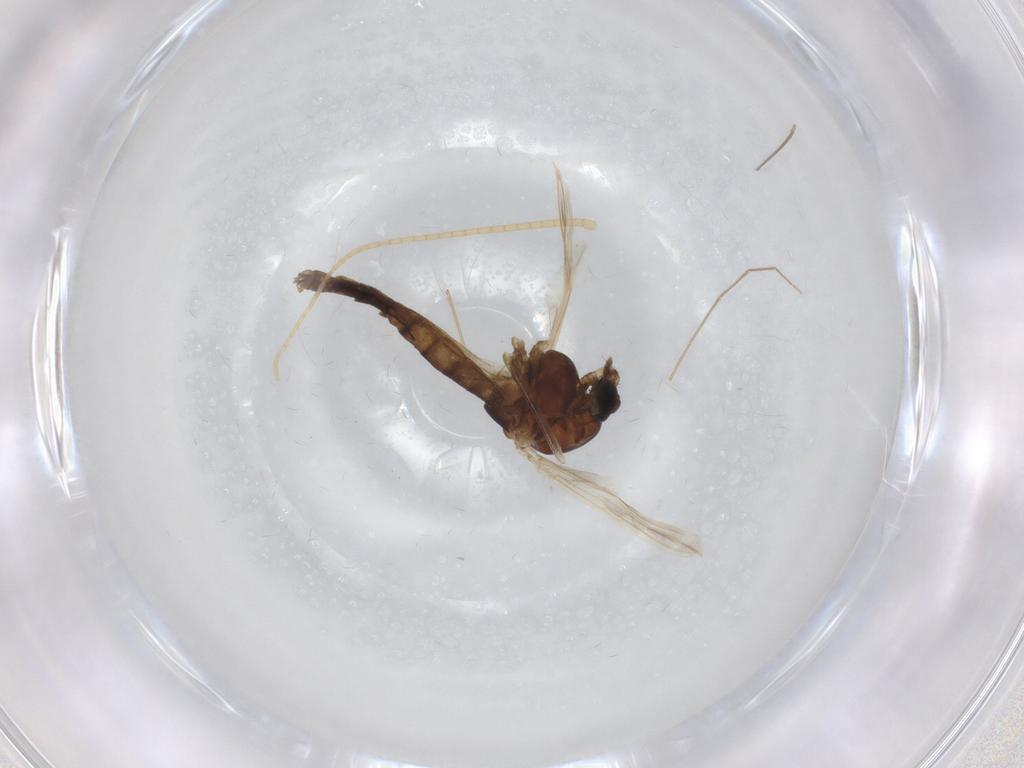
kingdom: Animalia
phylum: Arthropoda
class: Insecta
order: Diptera
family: Chironomidae
